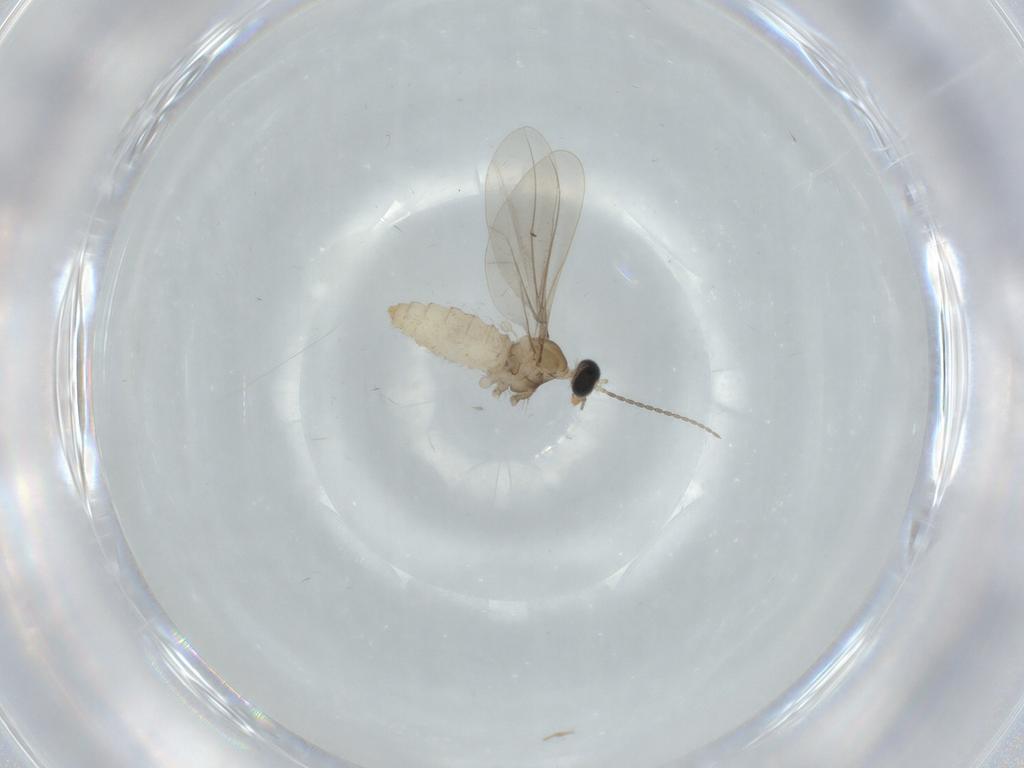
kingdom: Animalia
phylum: Arthropoda
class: Insecta
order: Diptera
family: Cecidomyiidae
